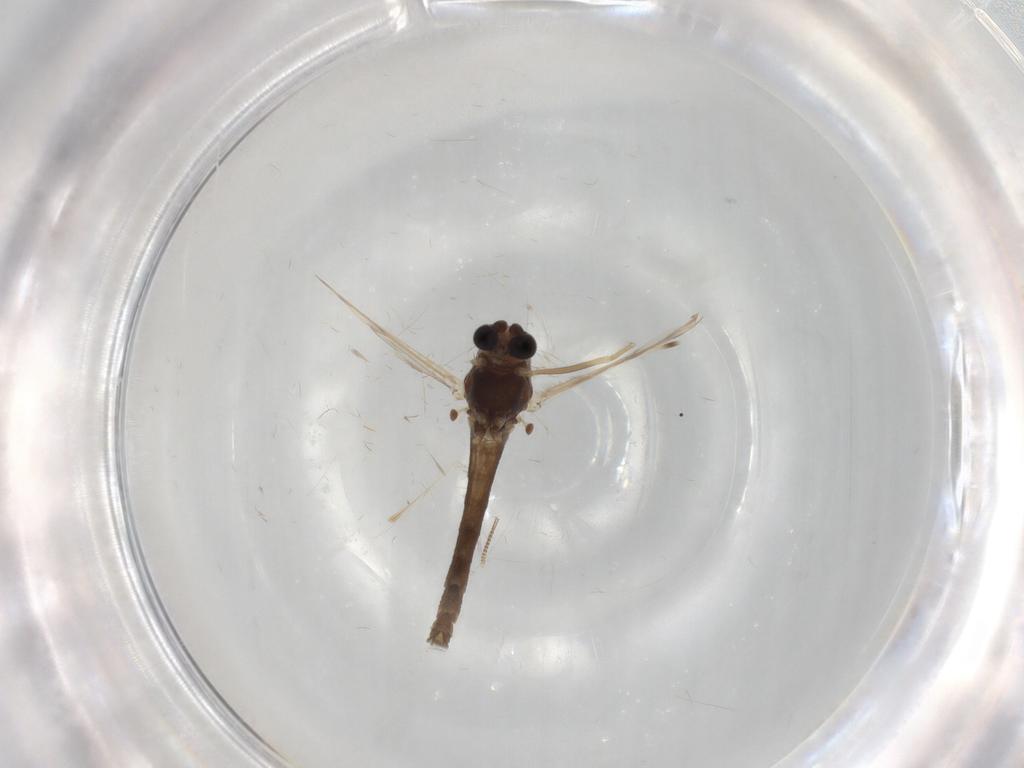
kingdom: Animalia
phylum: Arthropoda
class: Insecta
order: Diptera
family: Chironomidae
